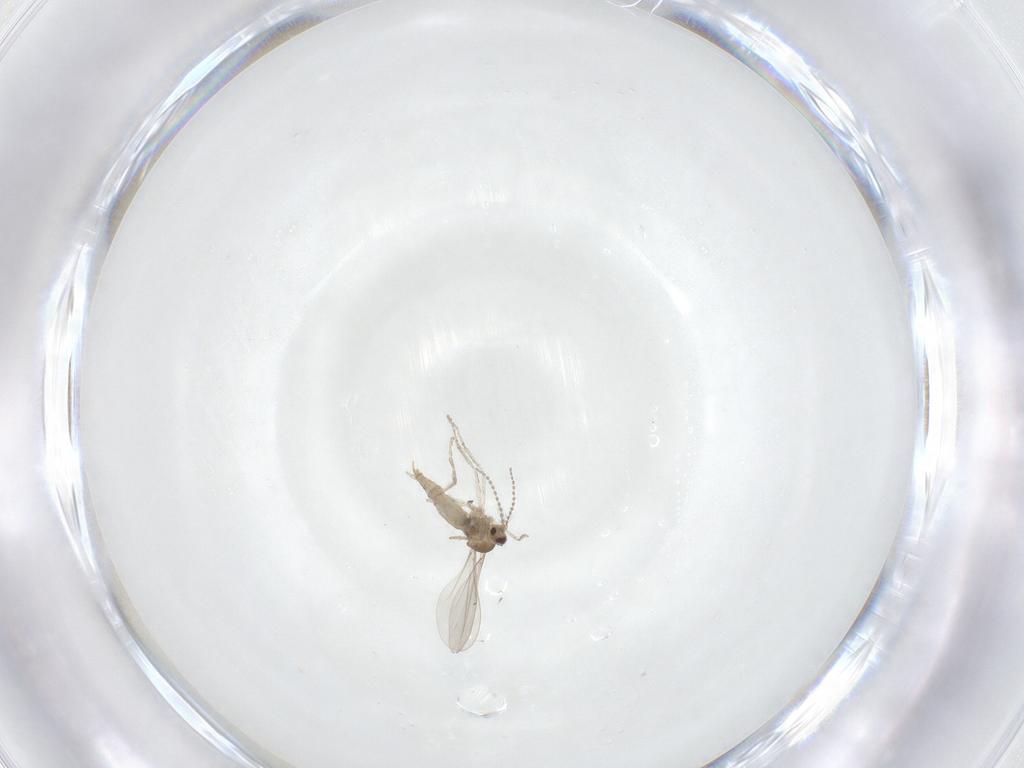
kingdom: Animalia
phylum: Arthropoda
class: Insecta
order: Diptera
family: Cecidomyiidae
